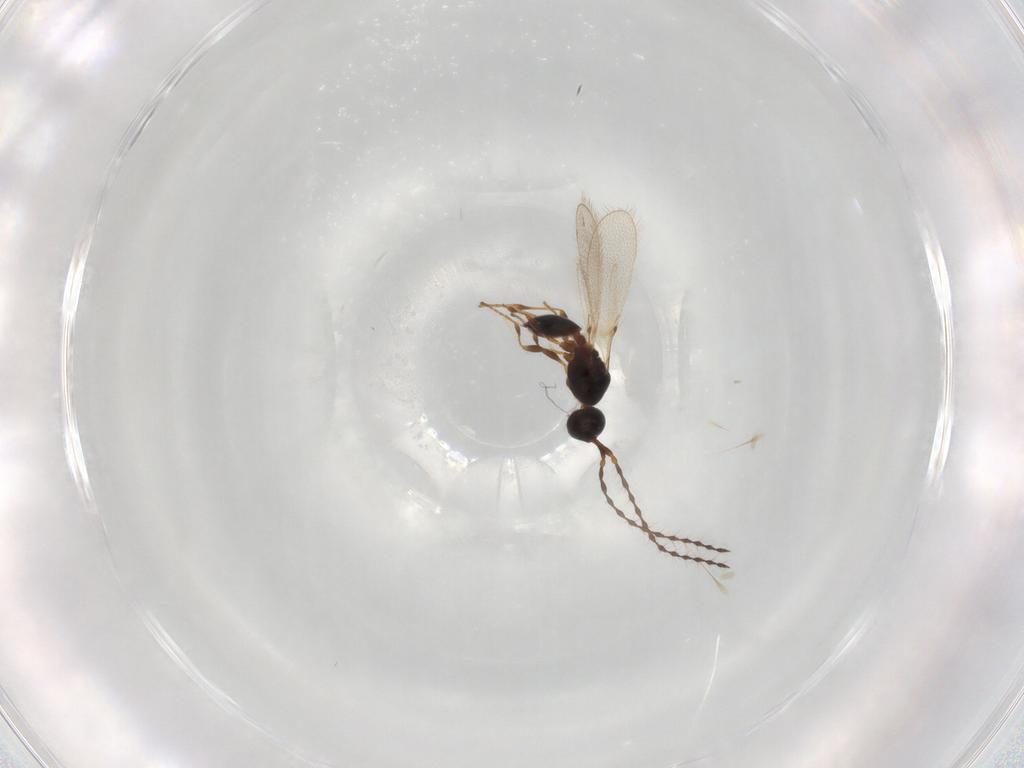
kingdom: Animalia
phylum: Arthropoda
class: Insecta
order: Hymenoptera
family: Diapriidae
